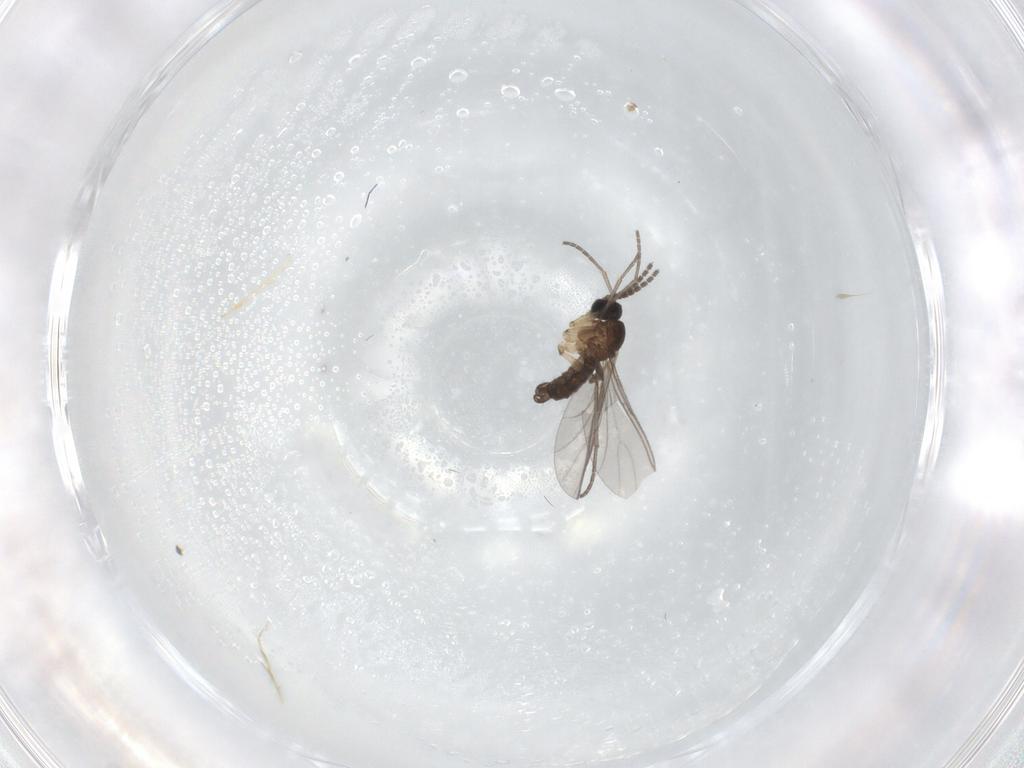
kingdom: Animalia
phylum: Arthropoda
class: Insecta
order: Diptera
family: Sciaridae
